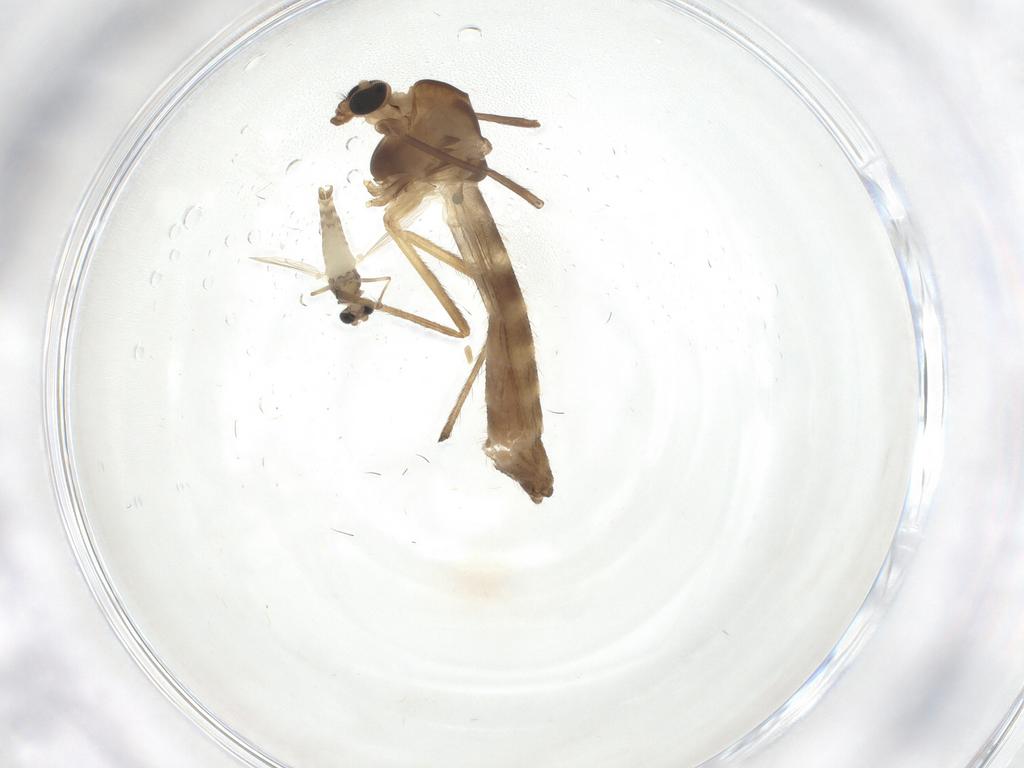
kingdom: Animalia
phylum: Arthropoda
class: Insecta
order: Diptera
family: Chironomidae
